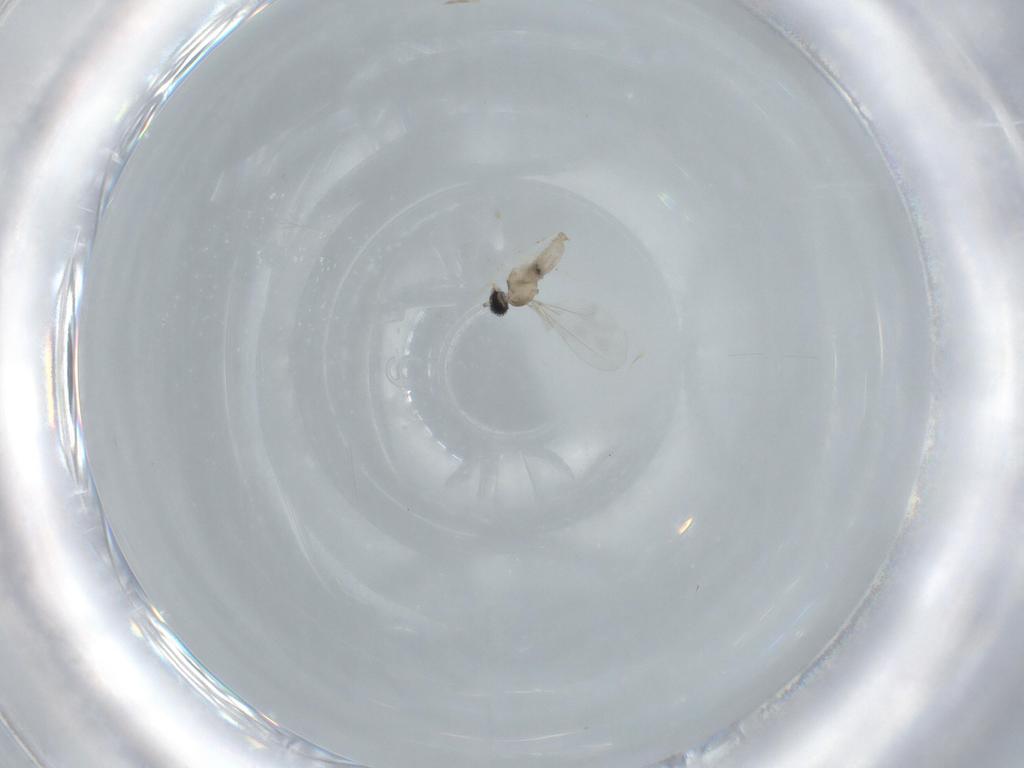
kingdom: Animalia
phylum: Arthropoda
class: Insecta
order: Diptera
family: Cecidomyiidae
